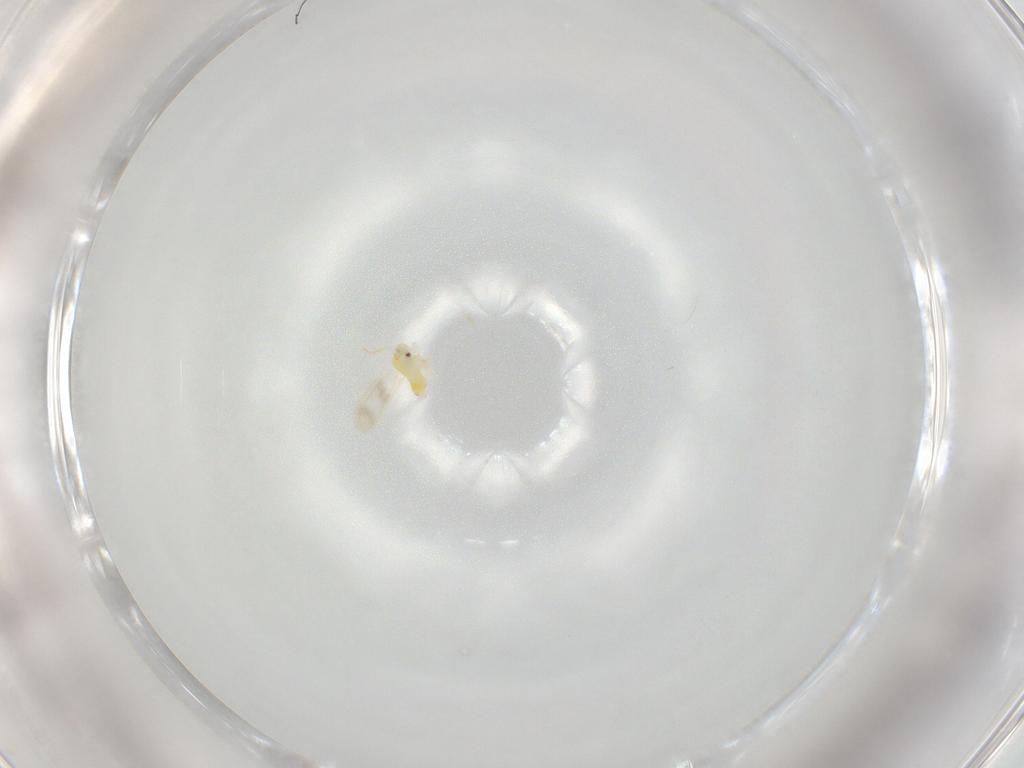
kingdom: Animalia
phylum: Arthropoda
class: Insecta
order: Hemiptera
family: Aleyrodidae
